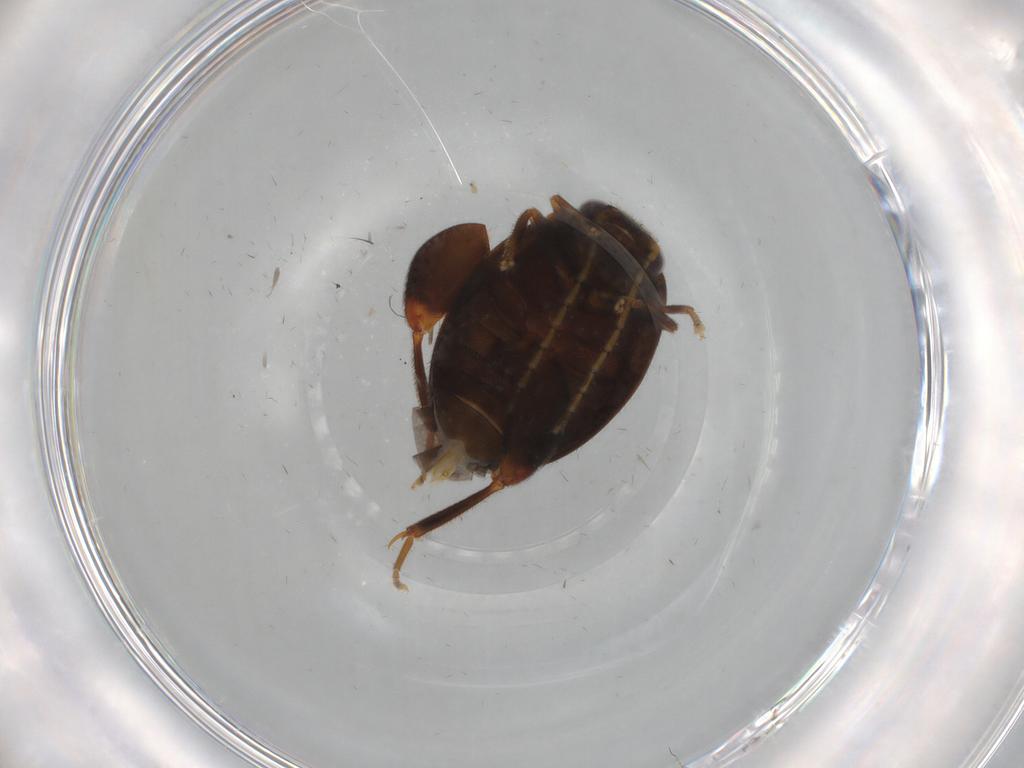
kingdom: Animalia
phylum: Arthropoda
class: Insecta
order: Coleoptera
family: Scirtidae
